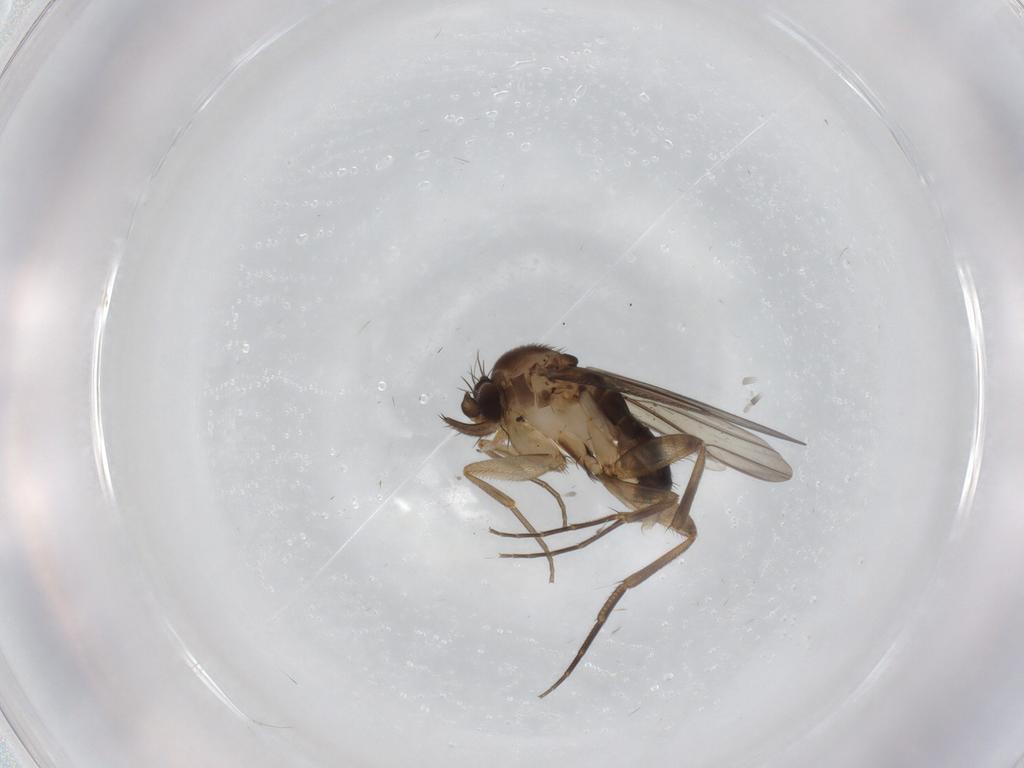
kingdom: Animalia
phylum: Arthropoda
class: Insecta
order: Diptera
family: Phoridae
